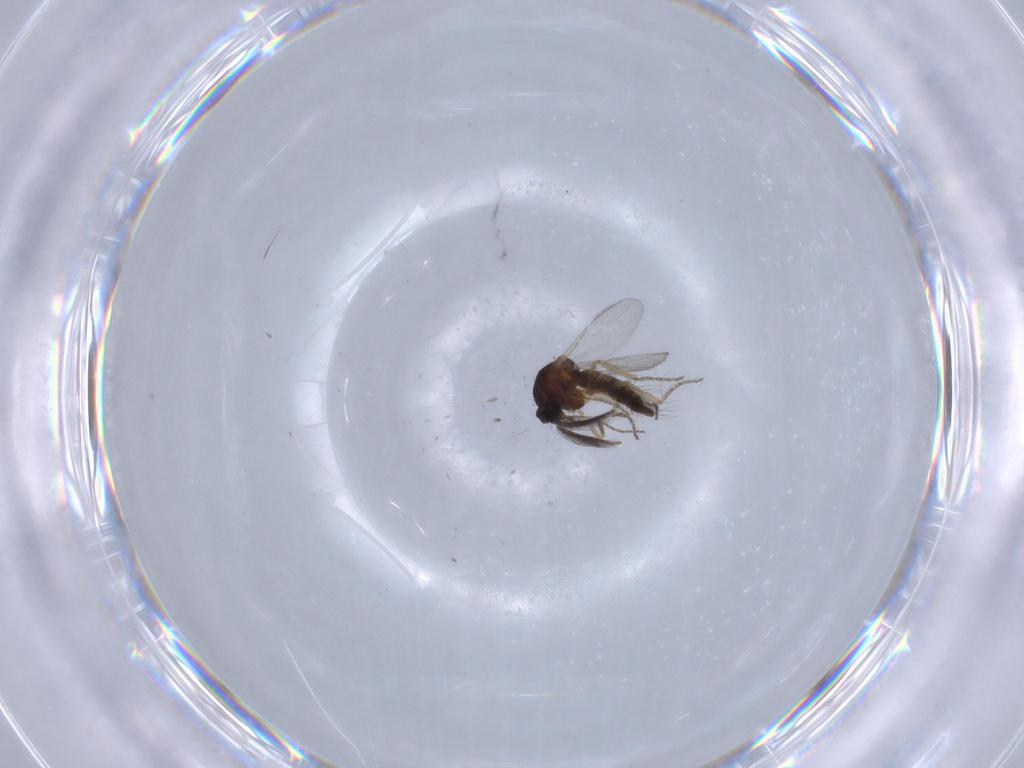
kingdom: Animalia
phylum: Arthropoda
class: Insecta
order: Diptera
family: Ceratopogonidae
